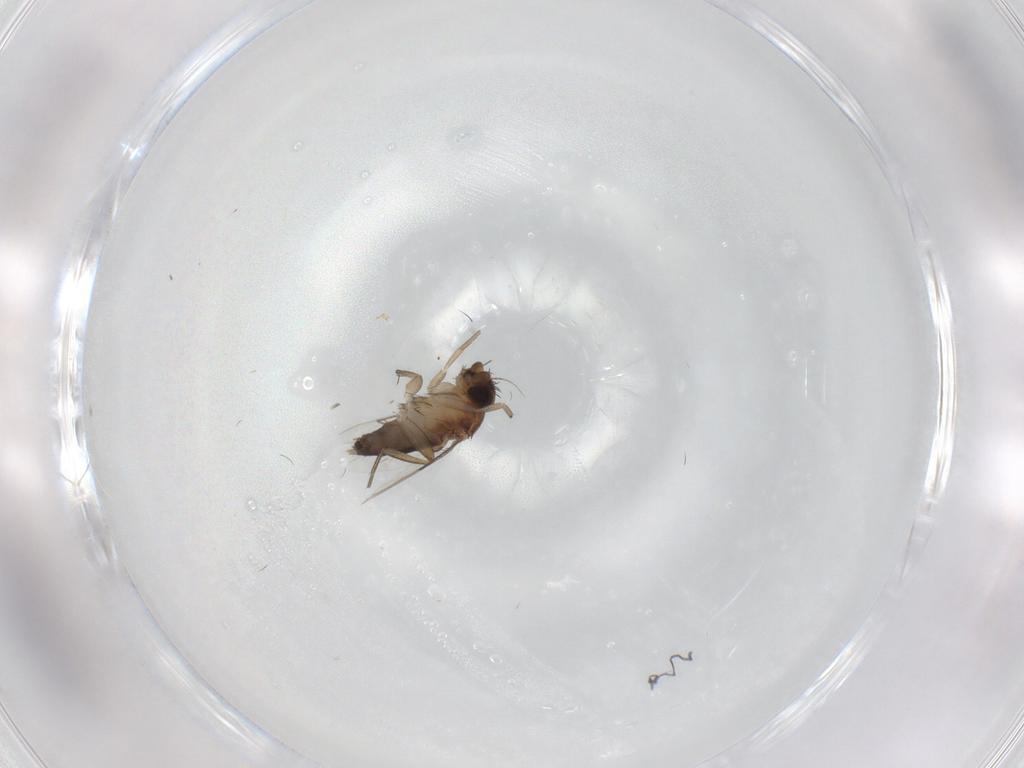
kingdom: Animalia
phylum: Arthropoda
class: Insecta
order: Diptera
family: Phoridae
